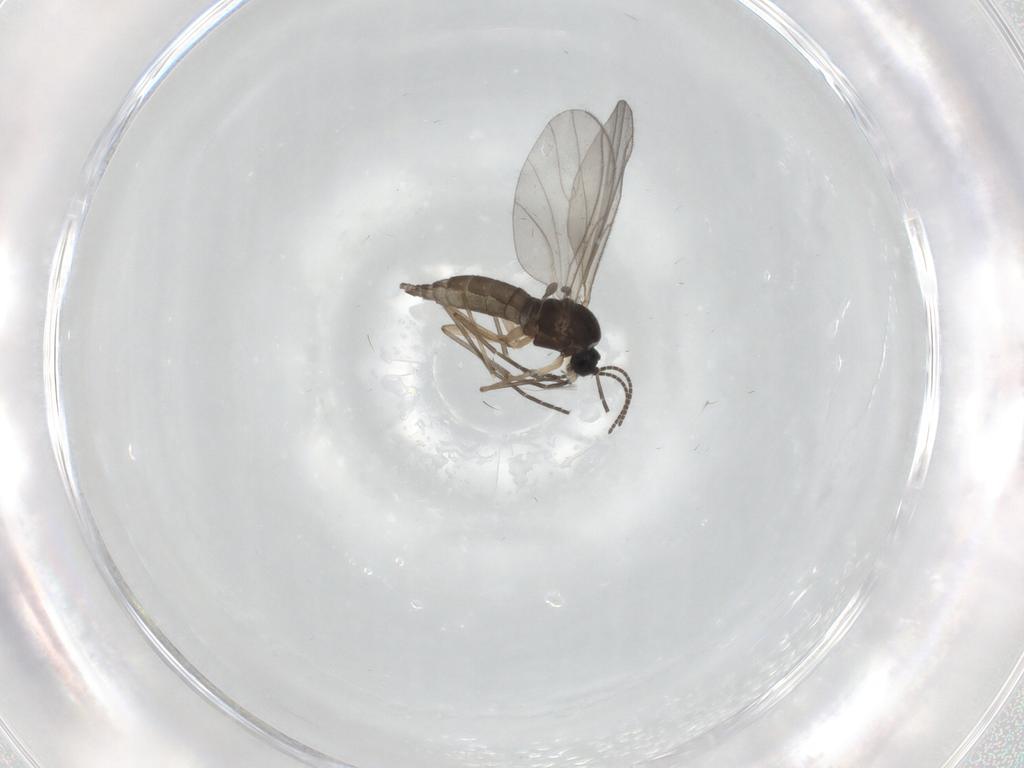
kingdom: Animalia
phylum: Arthropoda
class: Insecta
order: Diptera
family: Sciaridae
